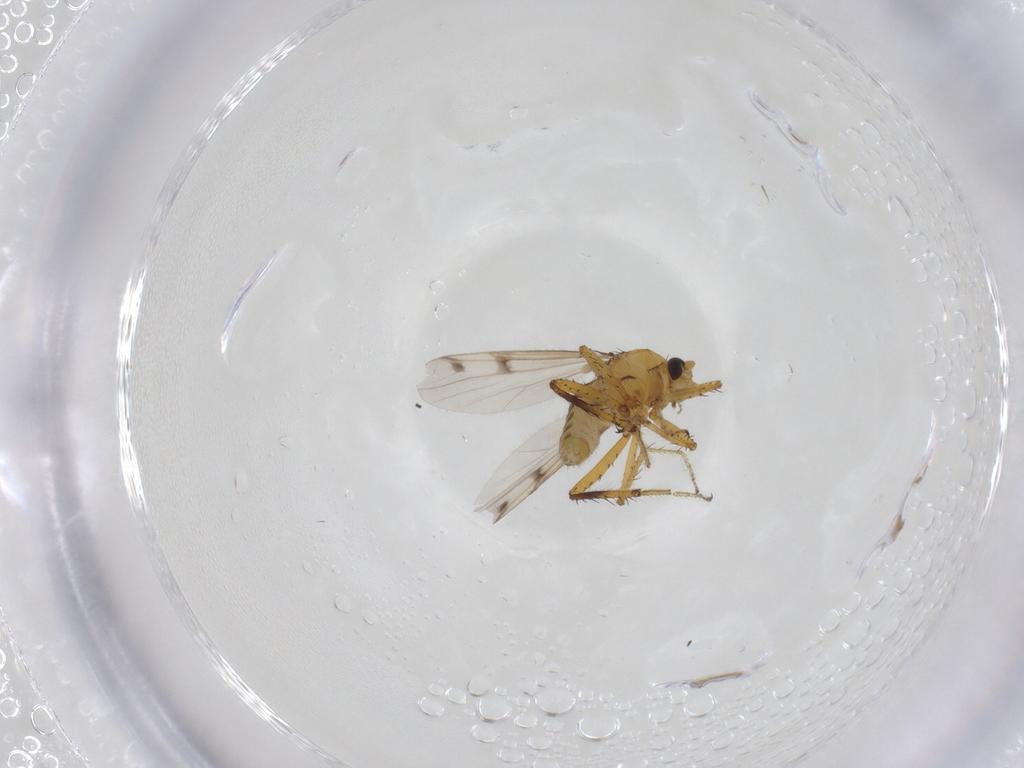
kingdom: Animalia
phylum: Arthropoda
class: Insecta
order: Diptera
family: Ceratopogonidae
